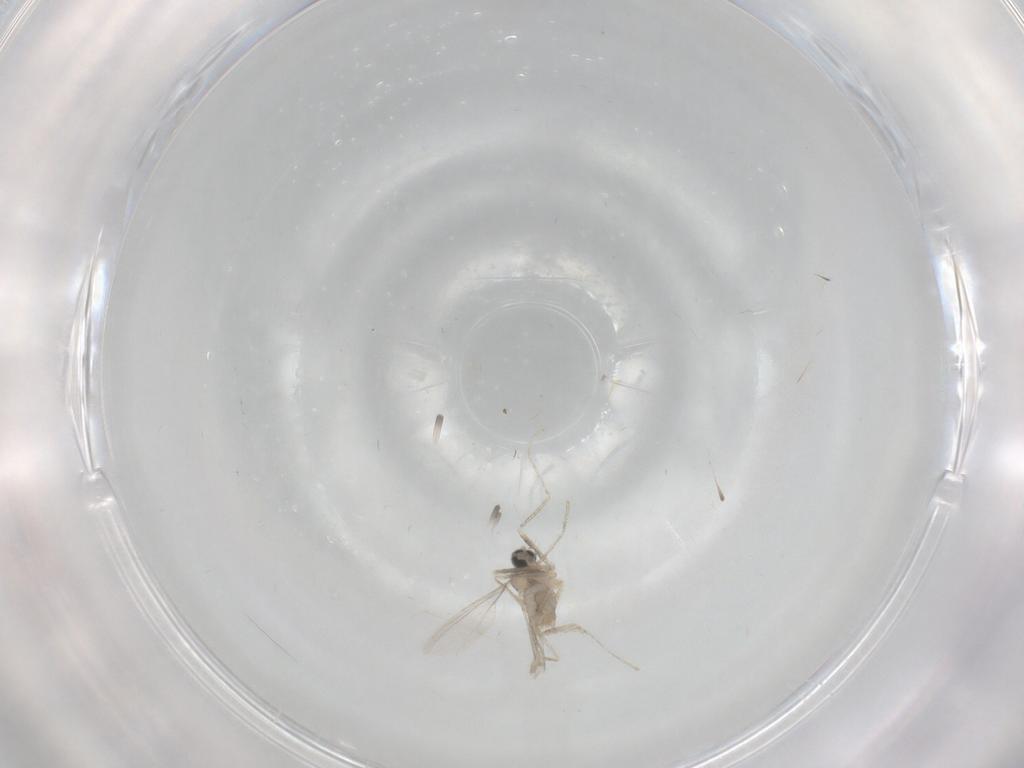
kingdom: Animalia
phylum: Arthropoda
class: Insecta
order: Diptera
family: Cecidomyiidae
